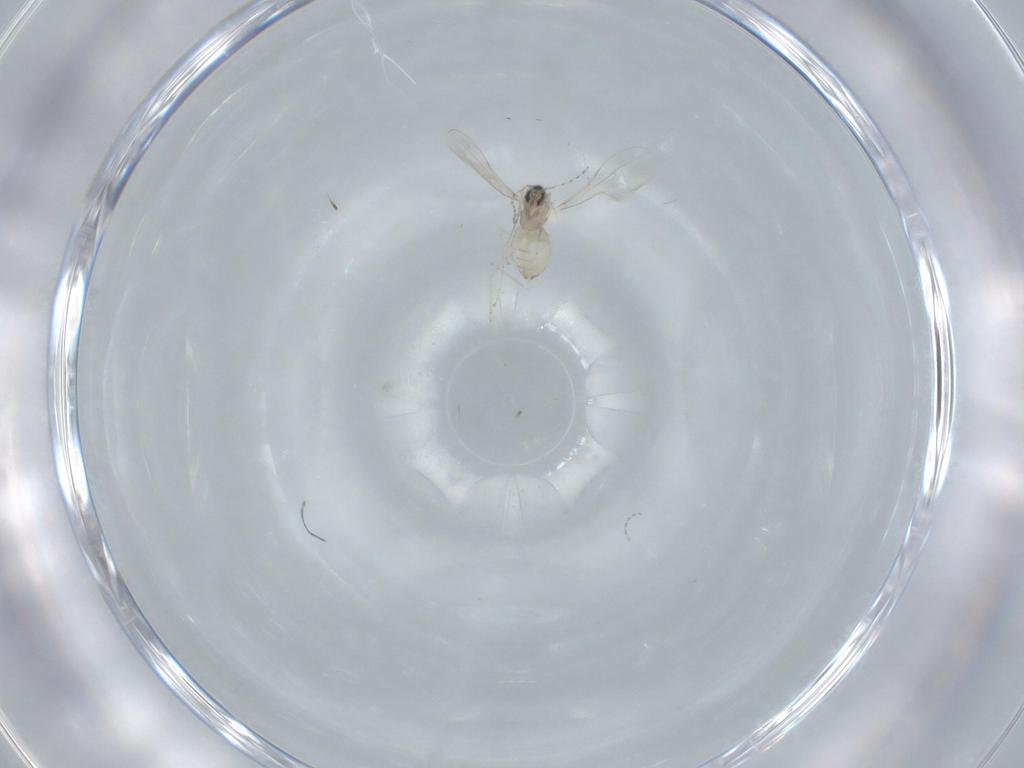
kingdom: Animalia
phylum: Arthropoda
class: Insecta
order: Diptera
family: Cecidomyiidae
